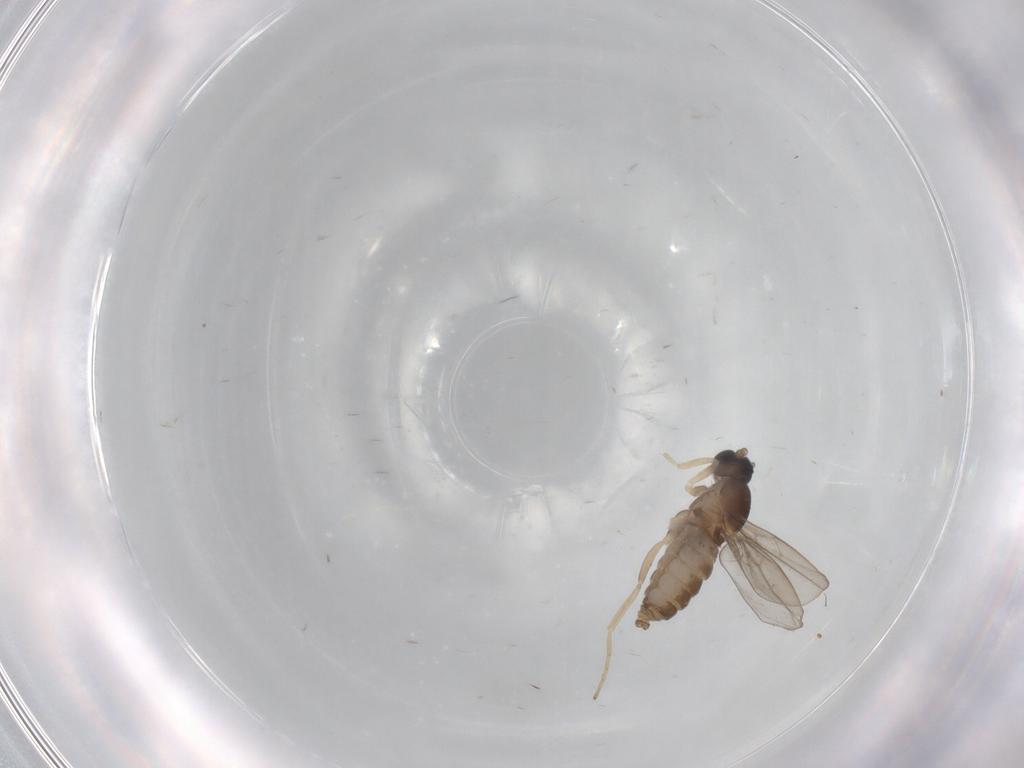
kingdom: Animalia
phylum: Arthropoda
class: Insecta
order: Diptera
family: Cecidomyiidae
